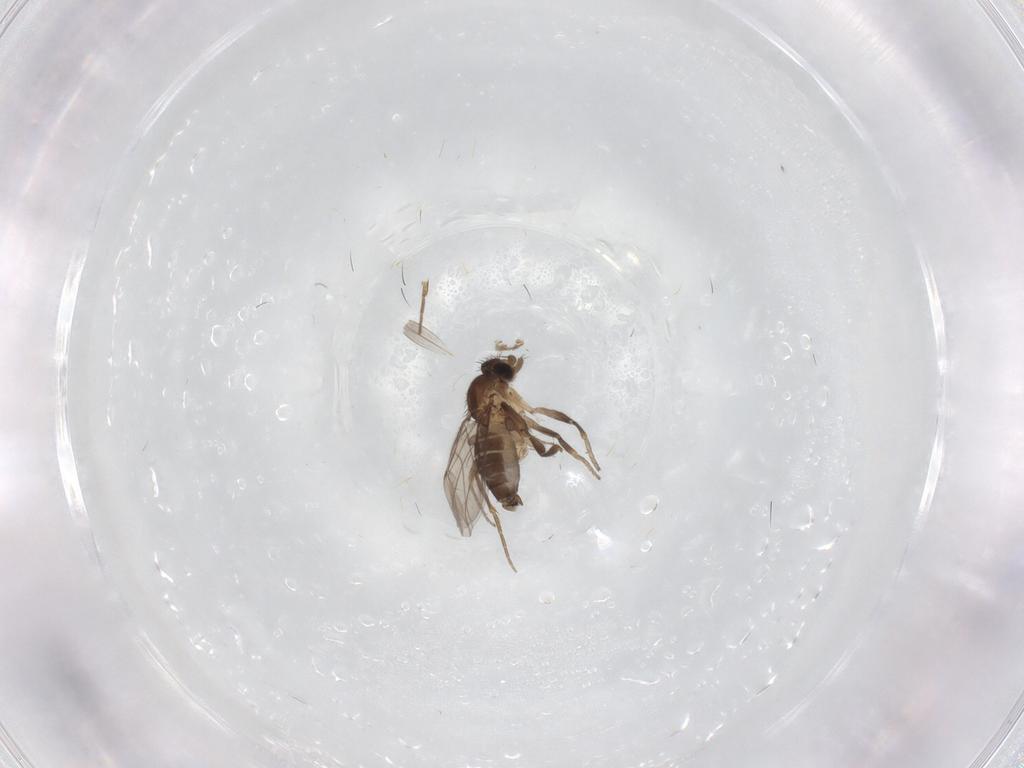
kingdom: Animalia
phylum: Arthropoda
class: Insecta
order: Diptera
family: Phoridae
